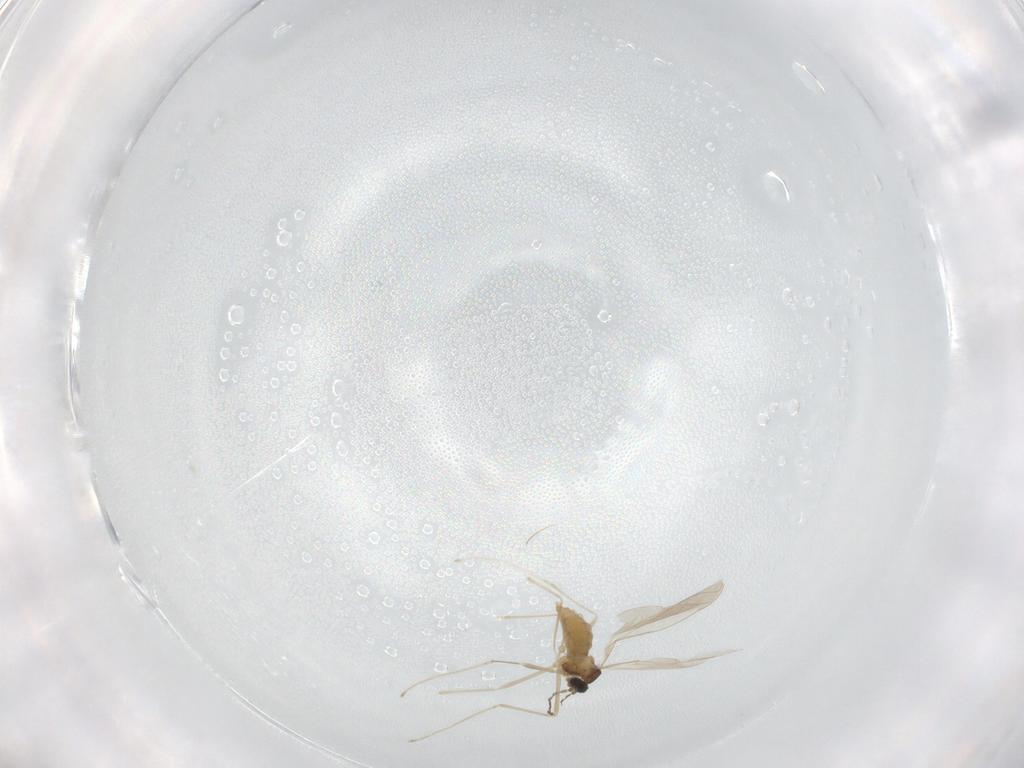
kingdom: Animalia
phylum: Arthropoda
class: Insecta
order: Diptera
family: Cecidomyiidae
